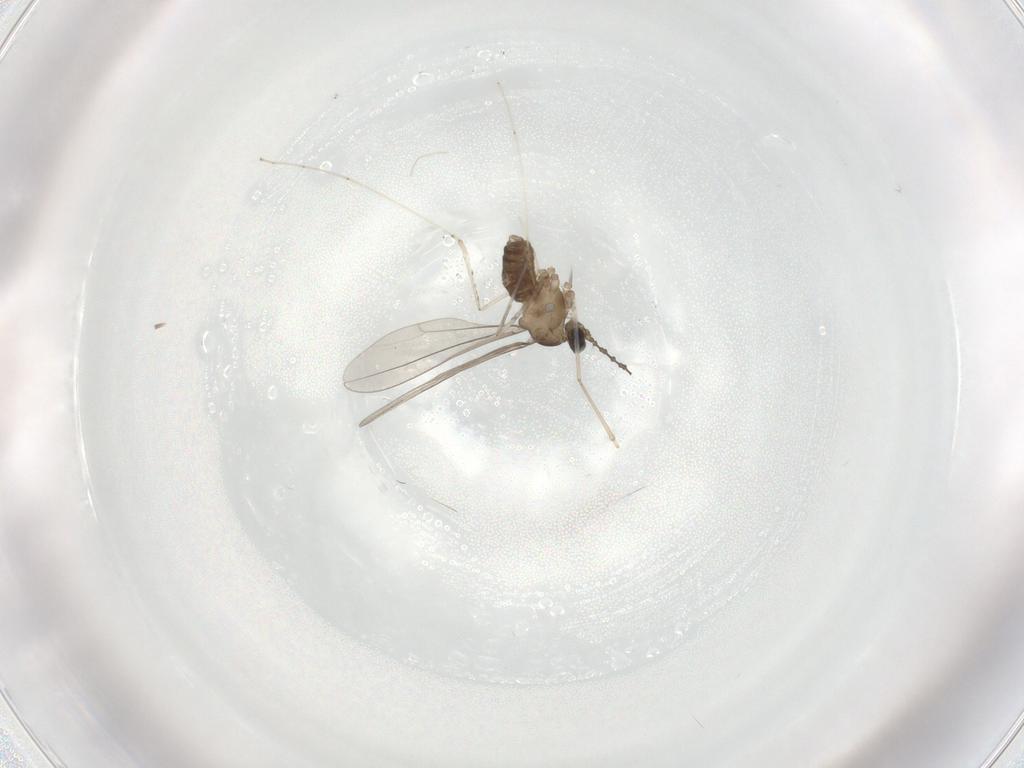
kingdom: Animalia
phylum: Arthropoda
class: Insecta
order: Diptera
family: Cecidomyiidae
